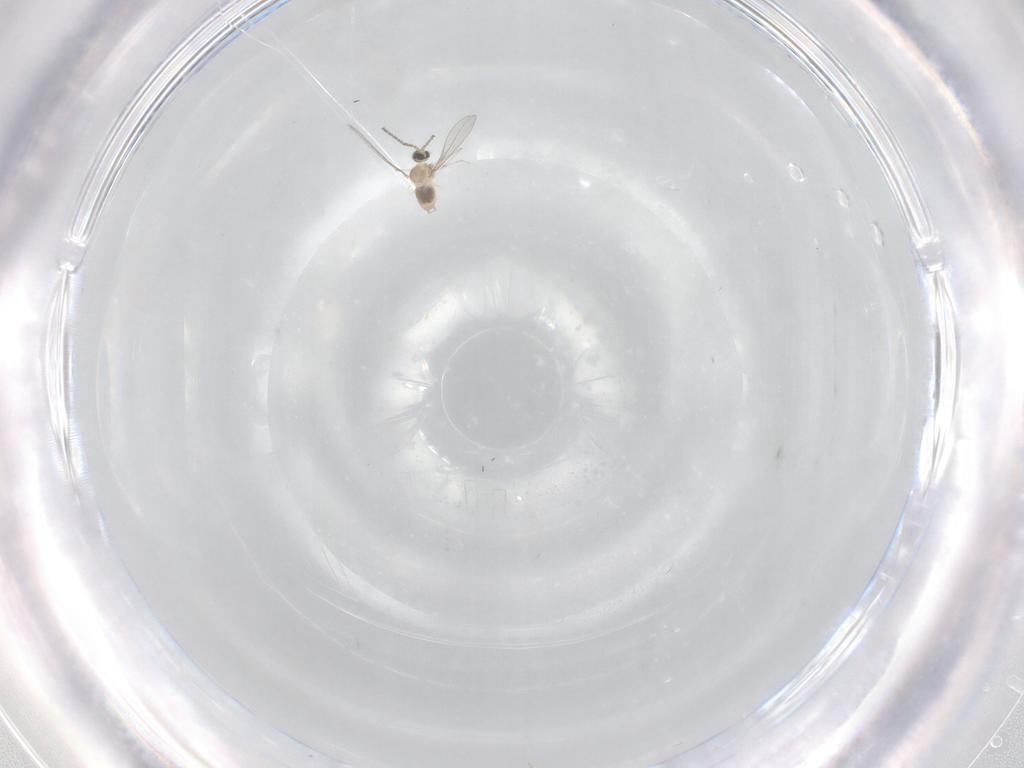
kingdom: Animalia
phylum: Arthropoda
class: Insecta
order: Diptera
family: Cecidomyiidae
